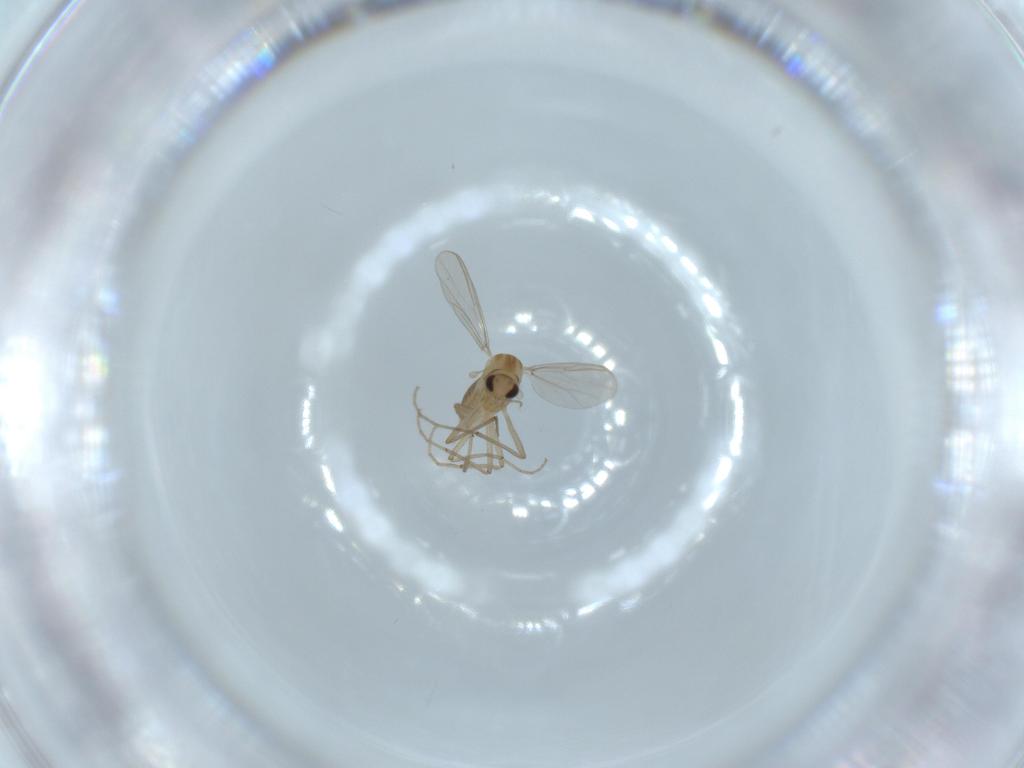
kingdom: Animalia
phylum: Arthropoda
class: Insecta
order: Diptera
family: Chironomidae
